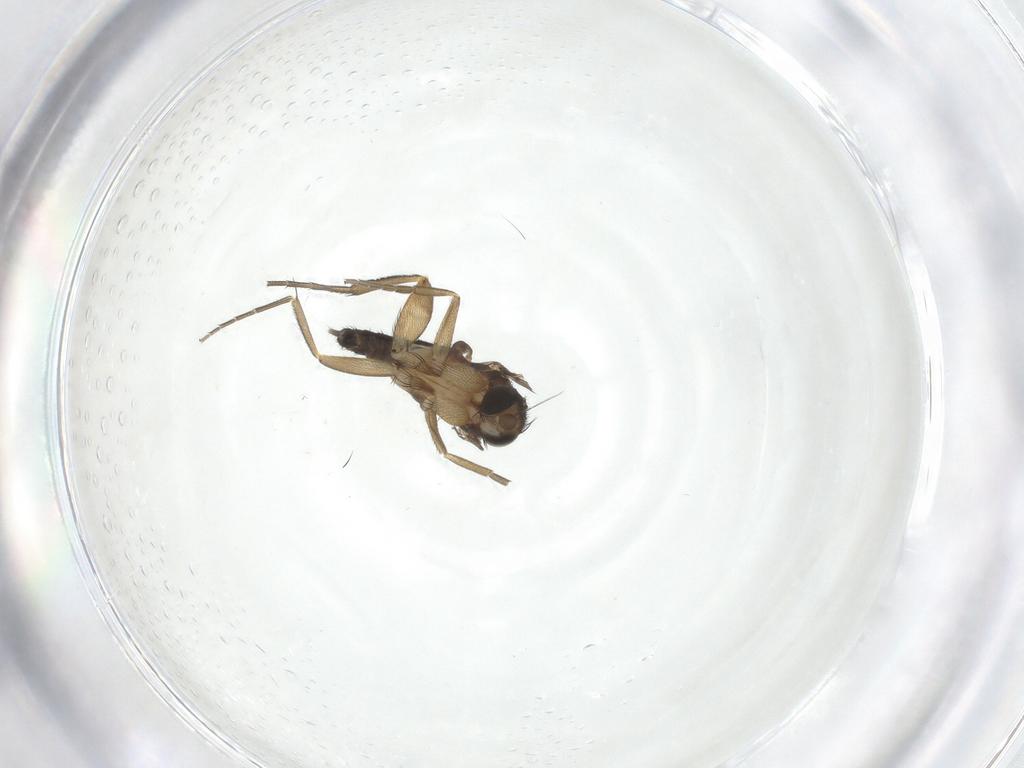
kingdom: Animalia
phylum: Arthropoda
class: Insecta
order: Diptera
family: Phoridae
